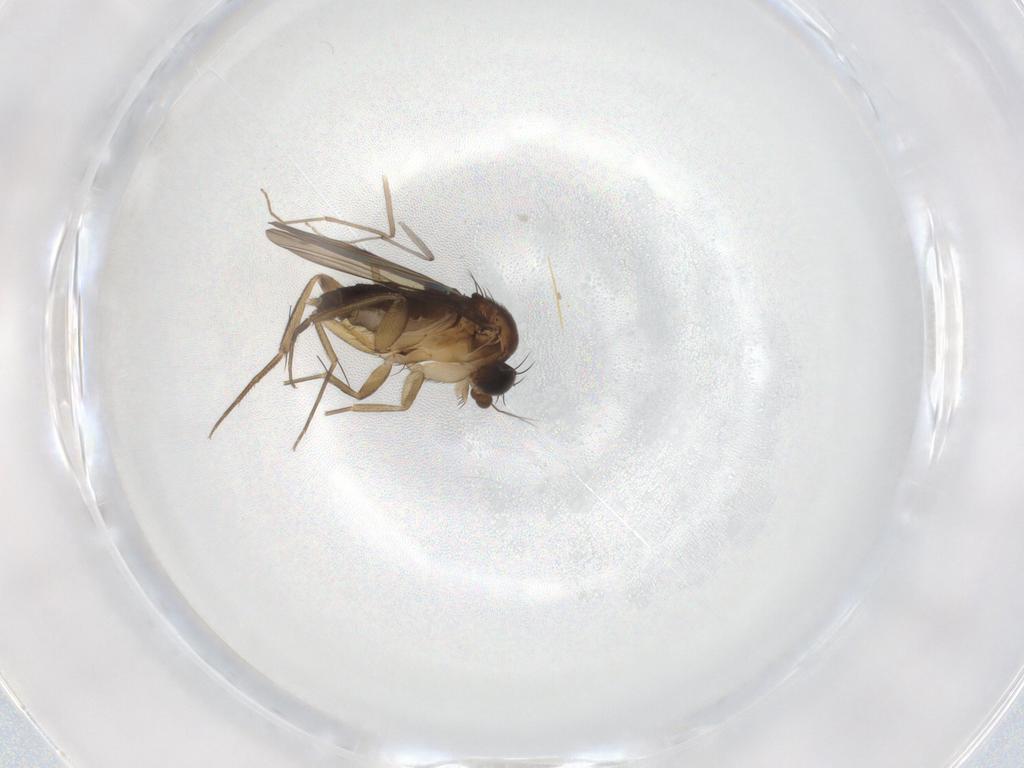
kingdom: Animalia
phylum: Arthropoda
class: Insecta
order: Diptera
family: Phoridae
